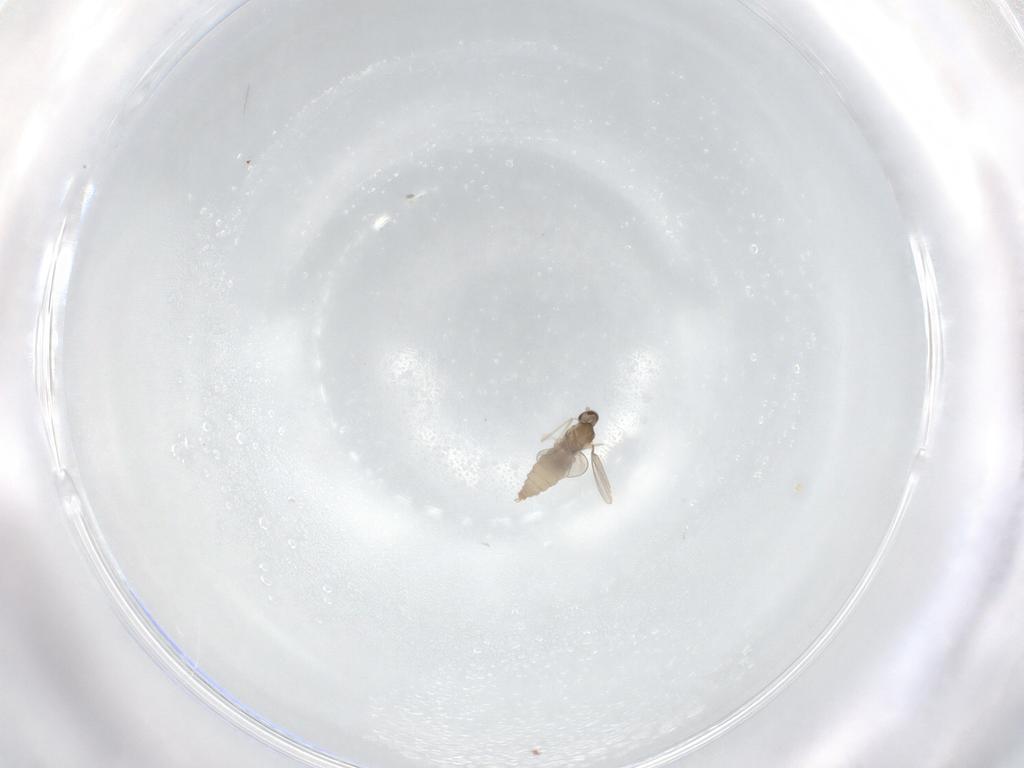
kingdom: Animalia
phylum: Arthropoda
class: Insecta
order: Diptera
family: Cecidomyiidae
